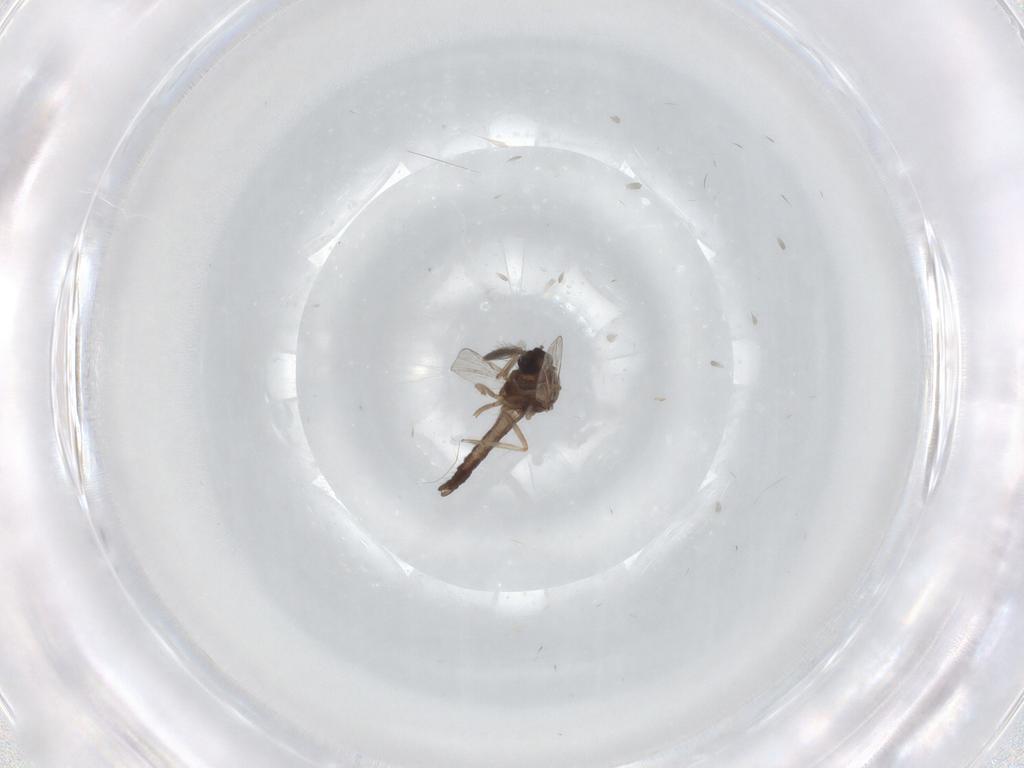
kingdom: Animalia
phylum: Arthropoda
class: Insecta
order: Diptera
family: Ceratopogonidae
